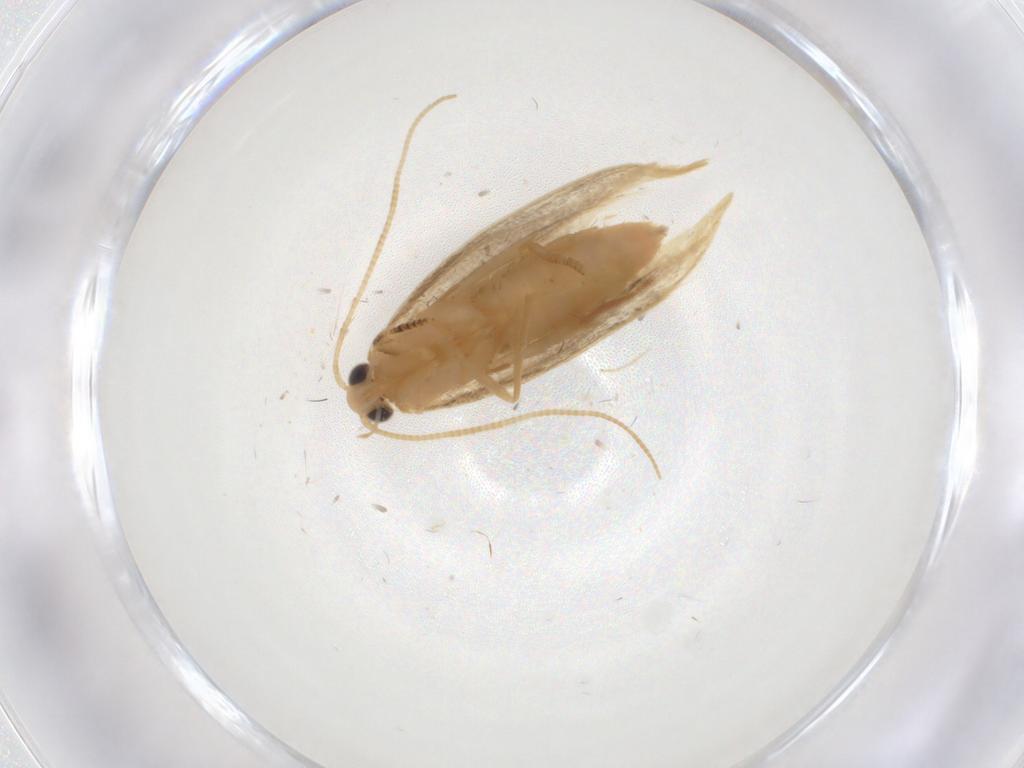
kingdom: Animalia
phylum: Arthropoda
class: Insecta
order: Lepidoptera
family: Nepticulidae
